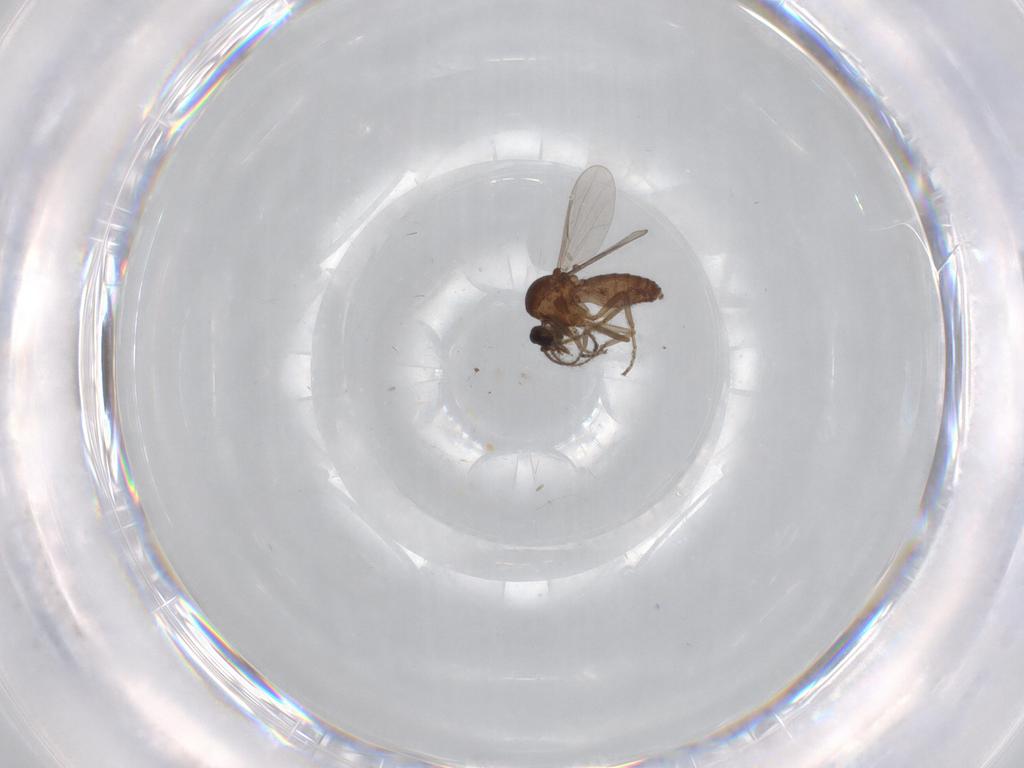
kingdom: Animalia
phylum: Arthropoda
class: Insecta
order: Diptera
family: Ceratopogonidae
